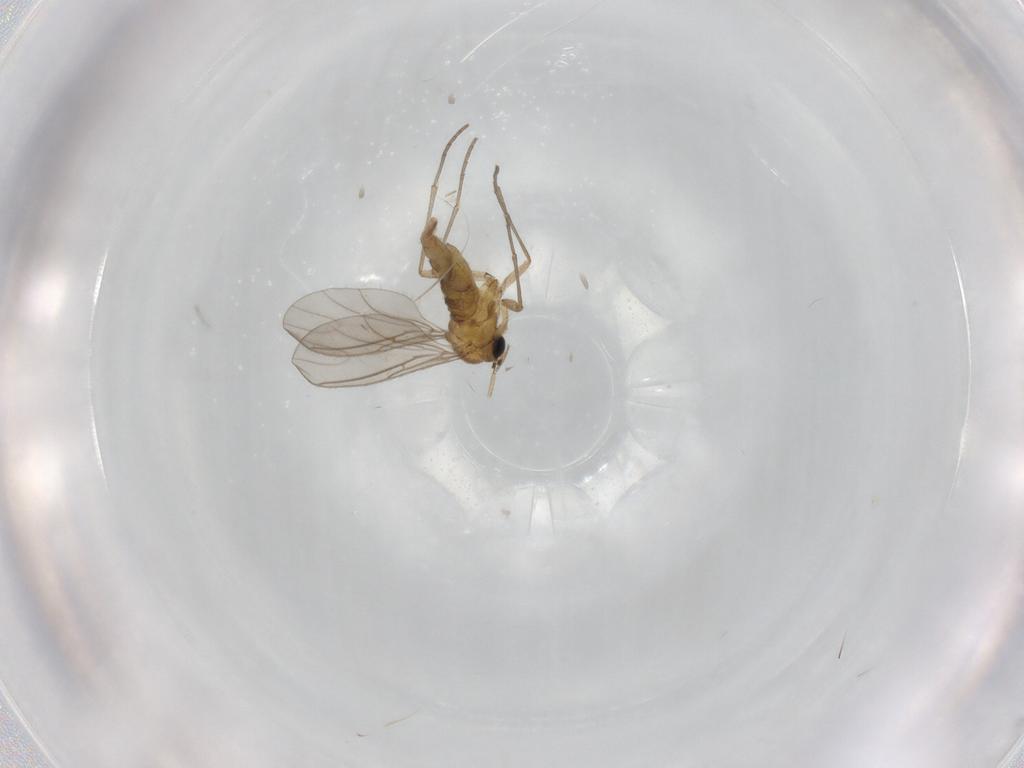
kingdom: Animalia
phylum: Arthropoda
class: Insecta
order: Diptera
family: Sciaridae
